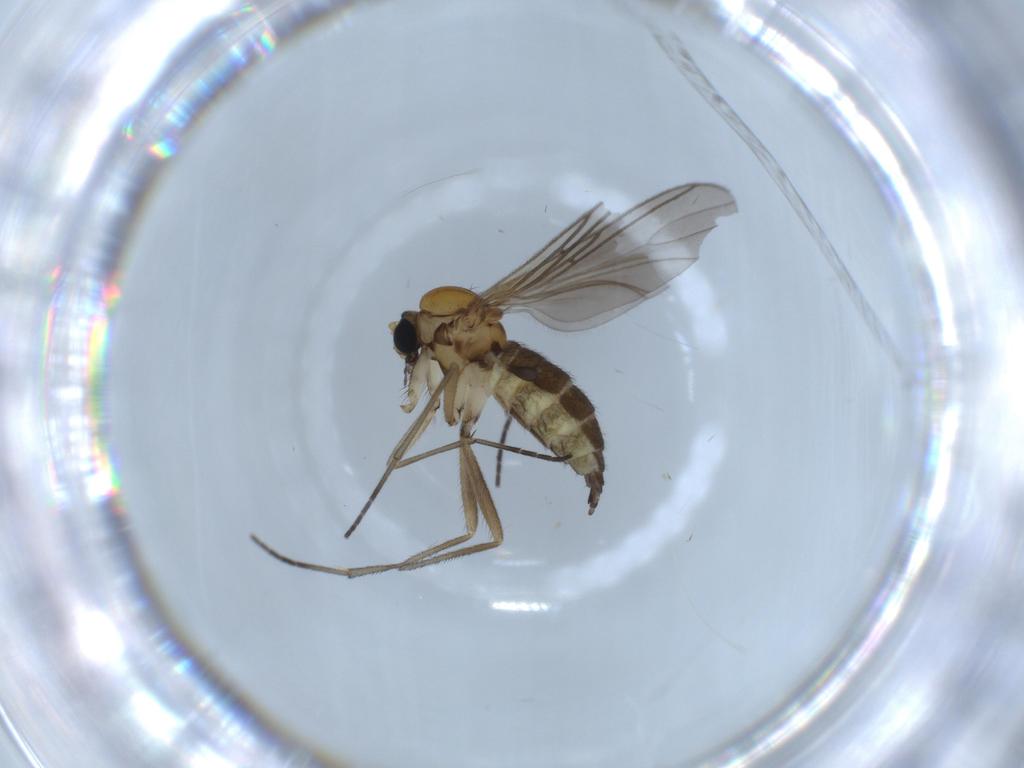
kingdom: Animalia
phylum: Arthropoda
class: Insecta
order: Diptera
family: Sciaridae
